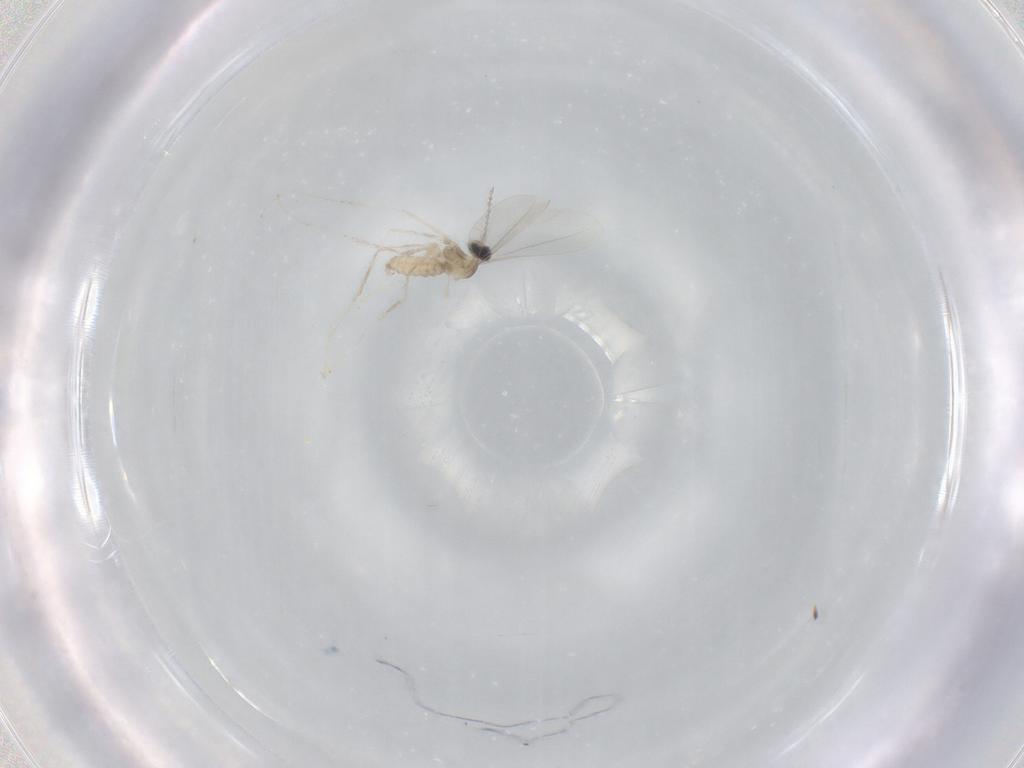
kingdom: Animalia
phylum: Arthropoda
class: Insecta
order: Diptera
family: Cecidomyiidae
